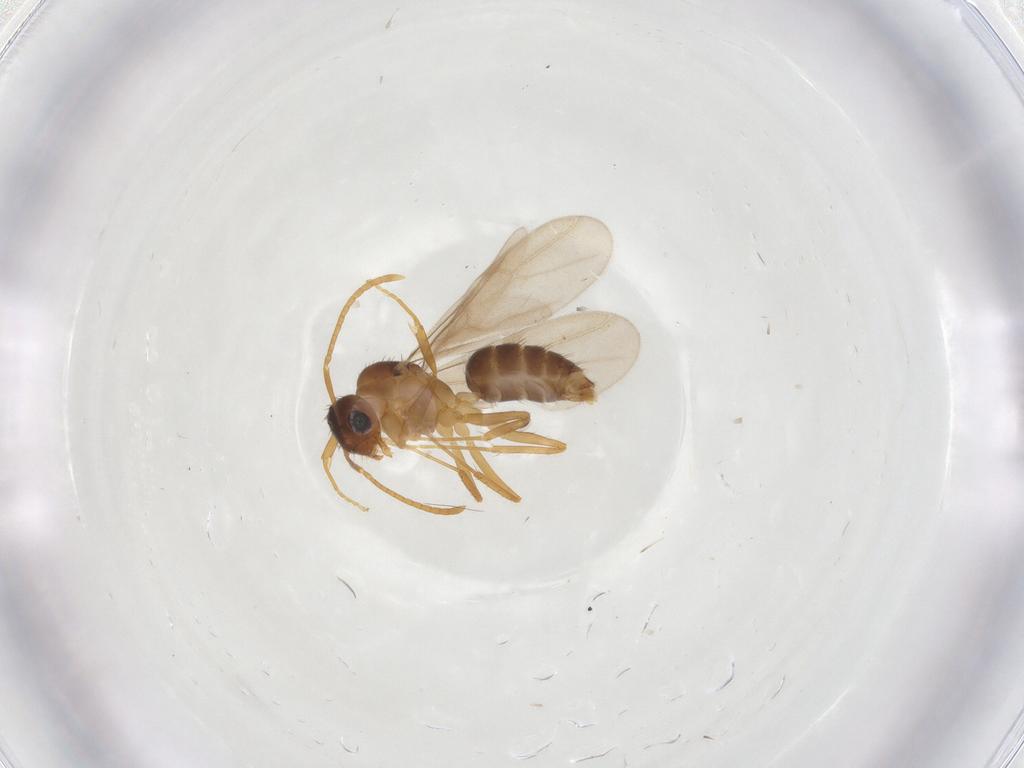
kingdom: Animalia
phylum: Arthropoda
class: Insecta
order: Hymenoptera
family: Formicidae
